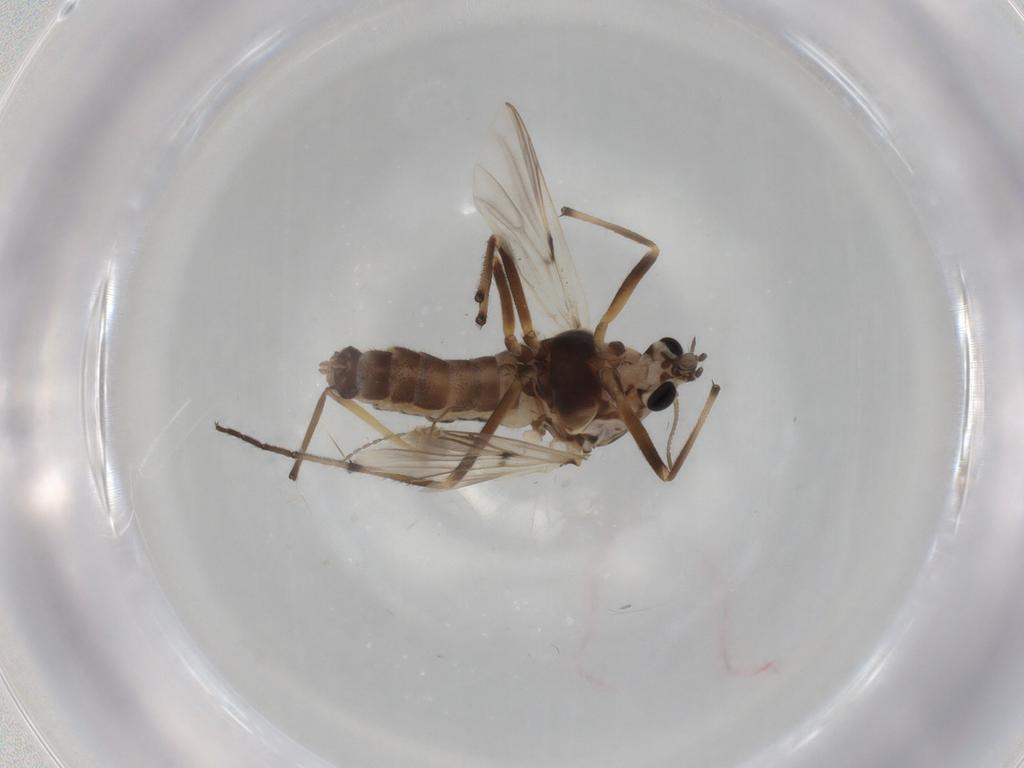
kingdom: Animalia
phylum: Arthropoda
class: Insecta
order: Diptera
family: Chironomidae
